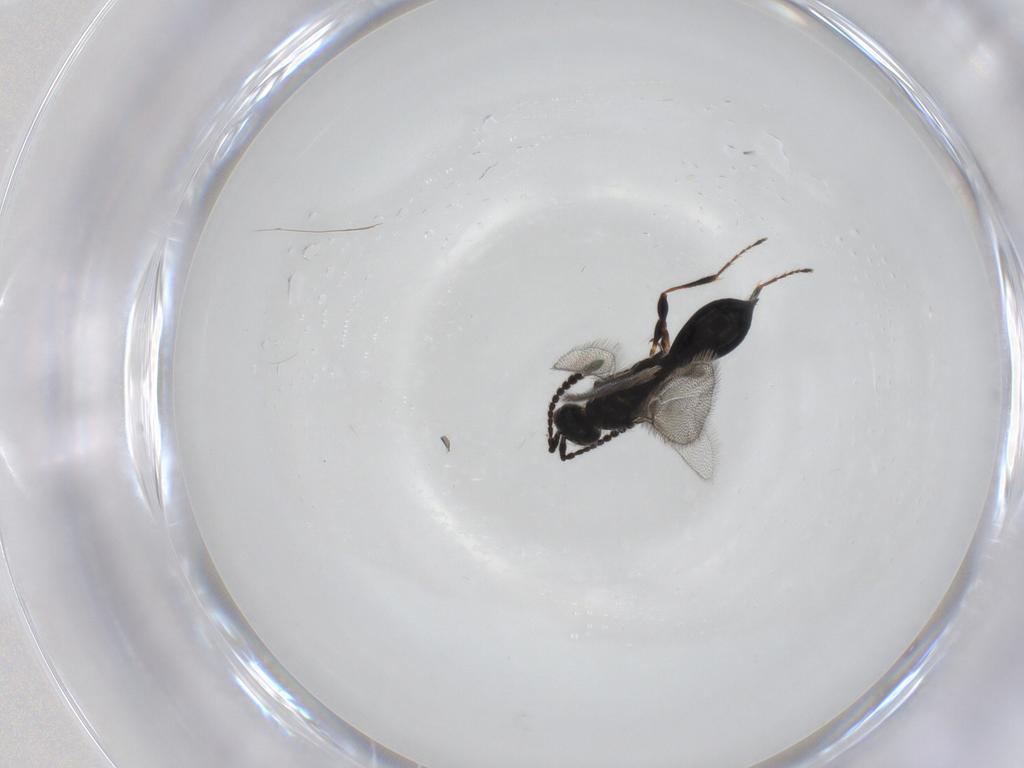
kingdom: Animalia
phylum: Arthropoda
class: Insecta
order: Hymenoptera
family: Diapriidae
